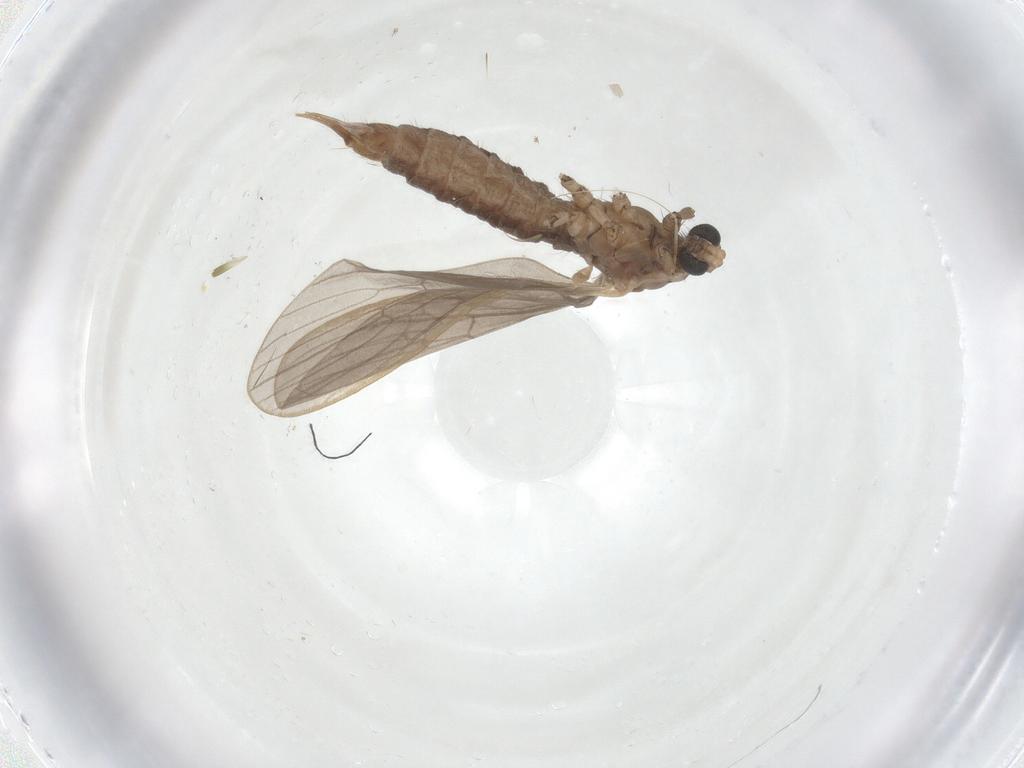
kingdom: Animalia
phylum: Arthropoda
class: Insecta
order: Diptera
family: Limoniidae
